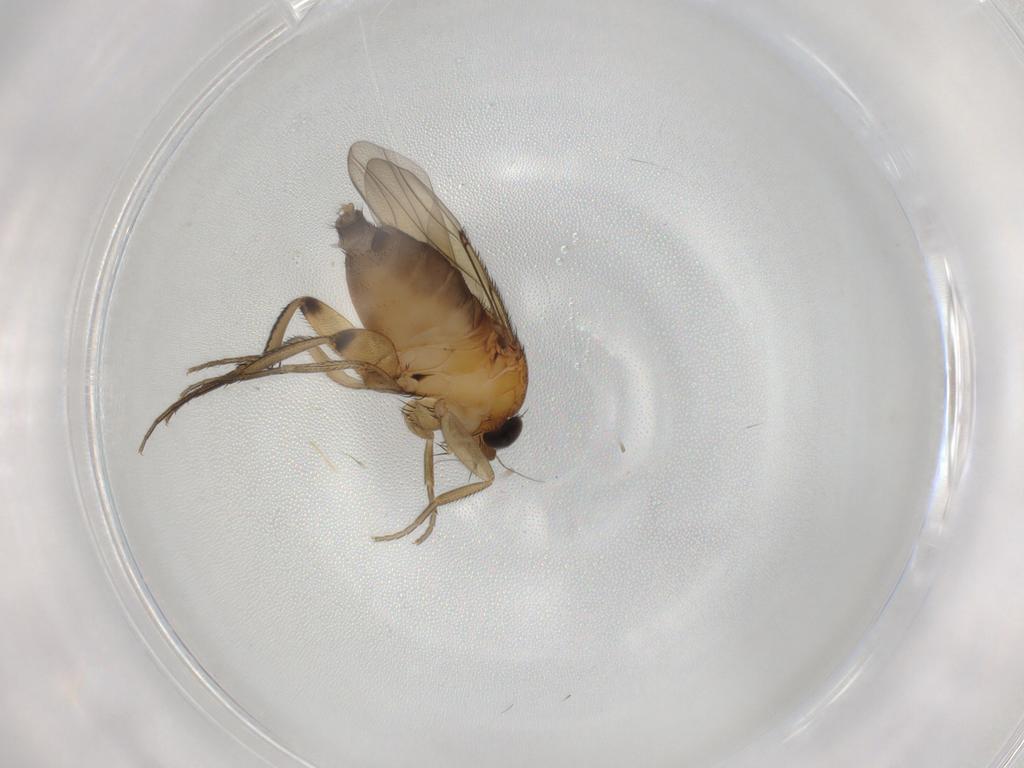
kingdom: Animalia
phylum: Arthropoda
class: Insecta
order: Diptera
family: Phoridae
